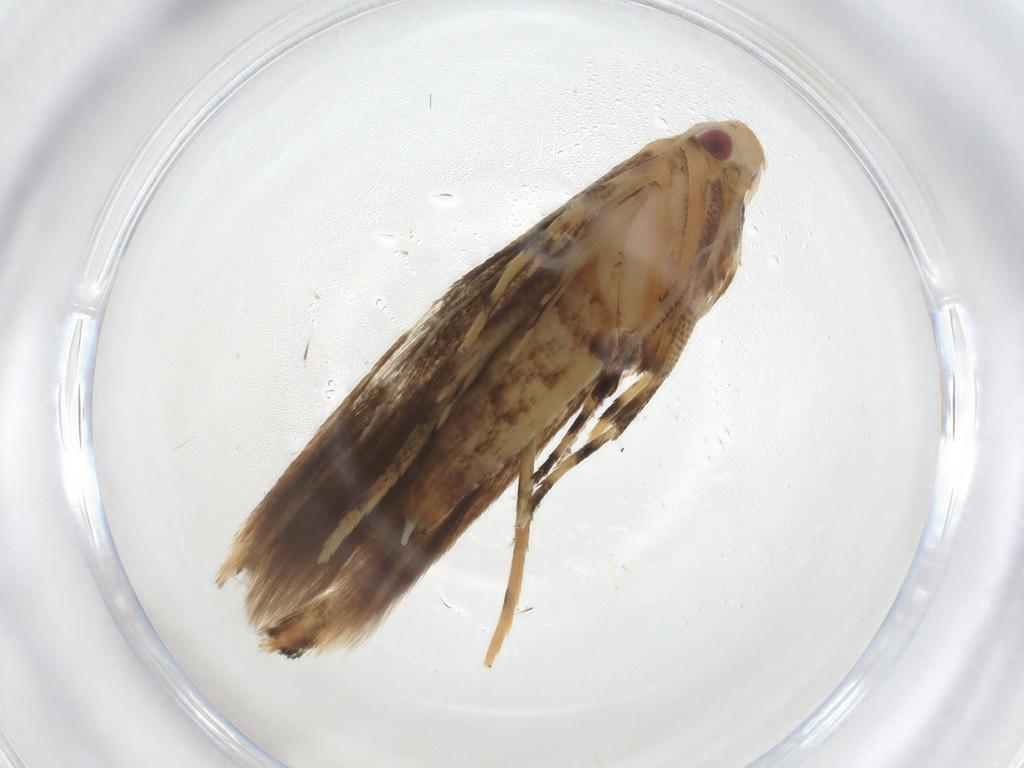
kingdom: Animalia
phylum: Arthropoda
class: Insecta
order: Lepidoptera
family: Cosmopterigidae
